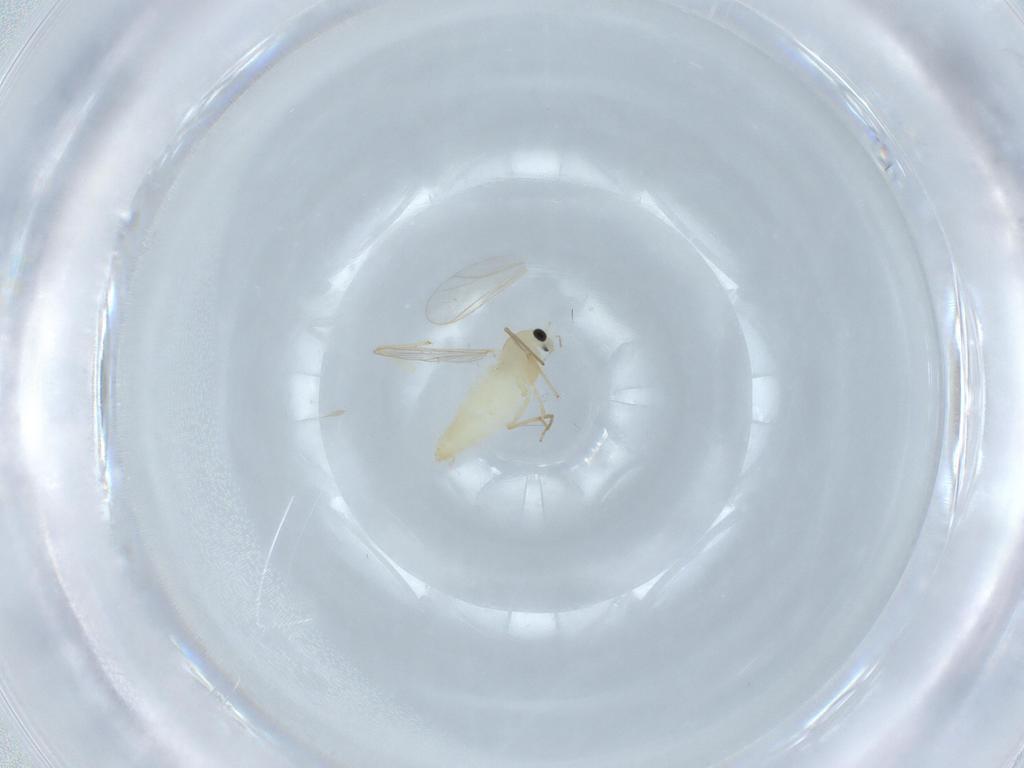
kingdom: Animalia
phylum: Arthropoda
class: Insecta
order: Diptera
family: Chironomidae
